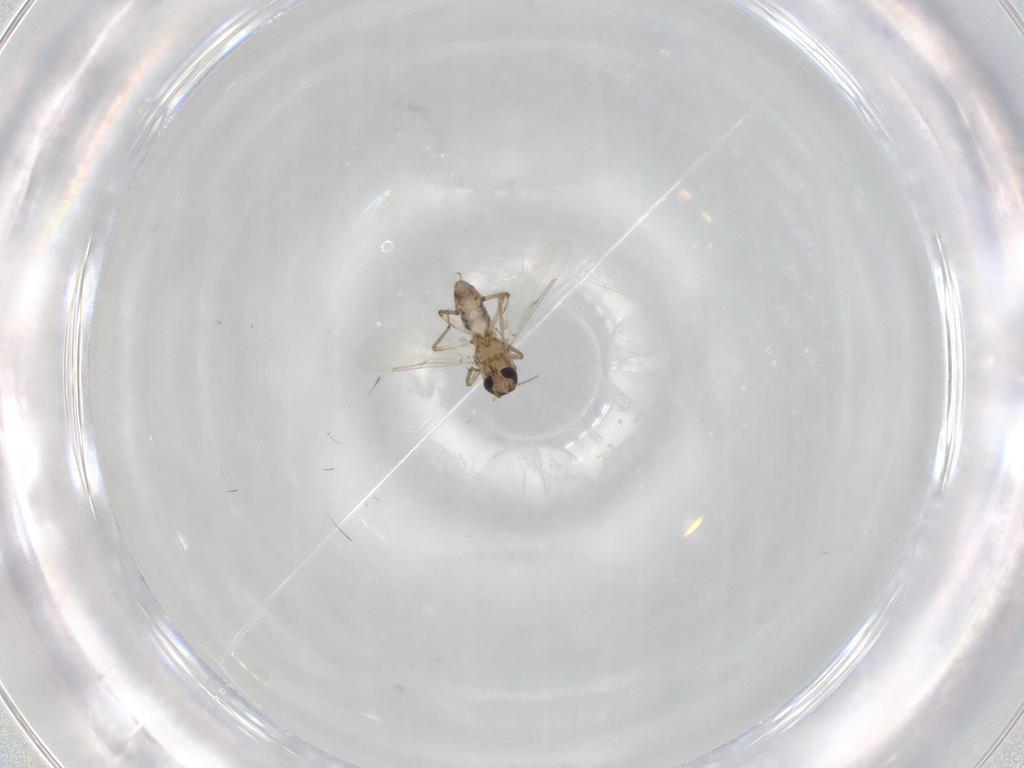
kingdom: Animalia
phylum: Arthropoda
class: Insecta
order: Diptera
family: Ceratopogonidae
